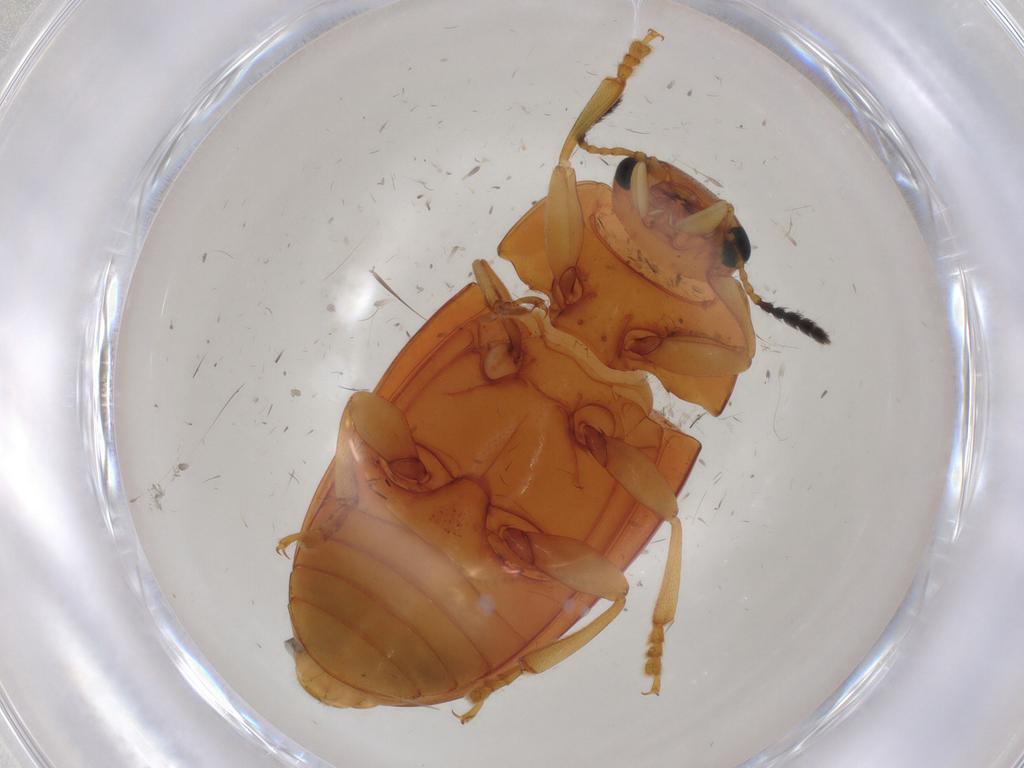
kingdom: Animalia
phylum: Arthropoda
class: Insecta
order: Coleoptera
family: Erotylidae
